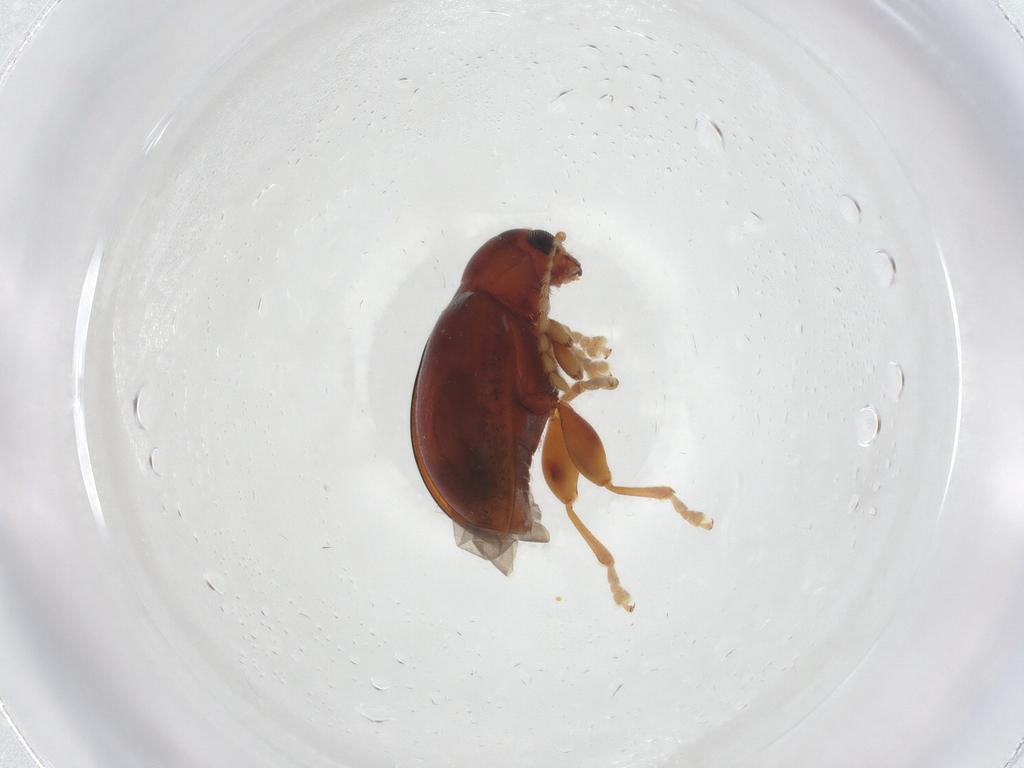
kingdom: Animalia
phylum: Arthropoda
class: Insecta
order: Coleoptera
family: Chrysomelidae
